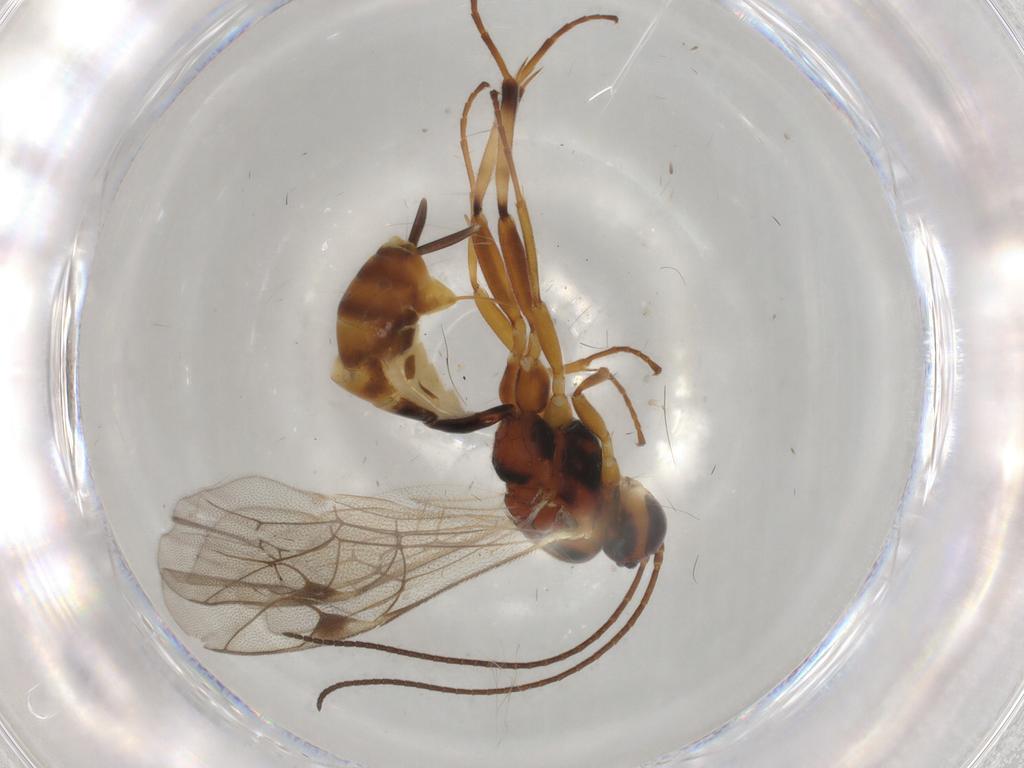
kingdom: Animalia
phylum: Arthropoda
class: Insecta
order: Hymenoptera
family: Ichneumonidae
